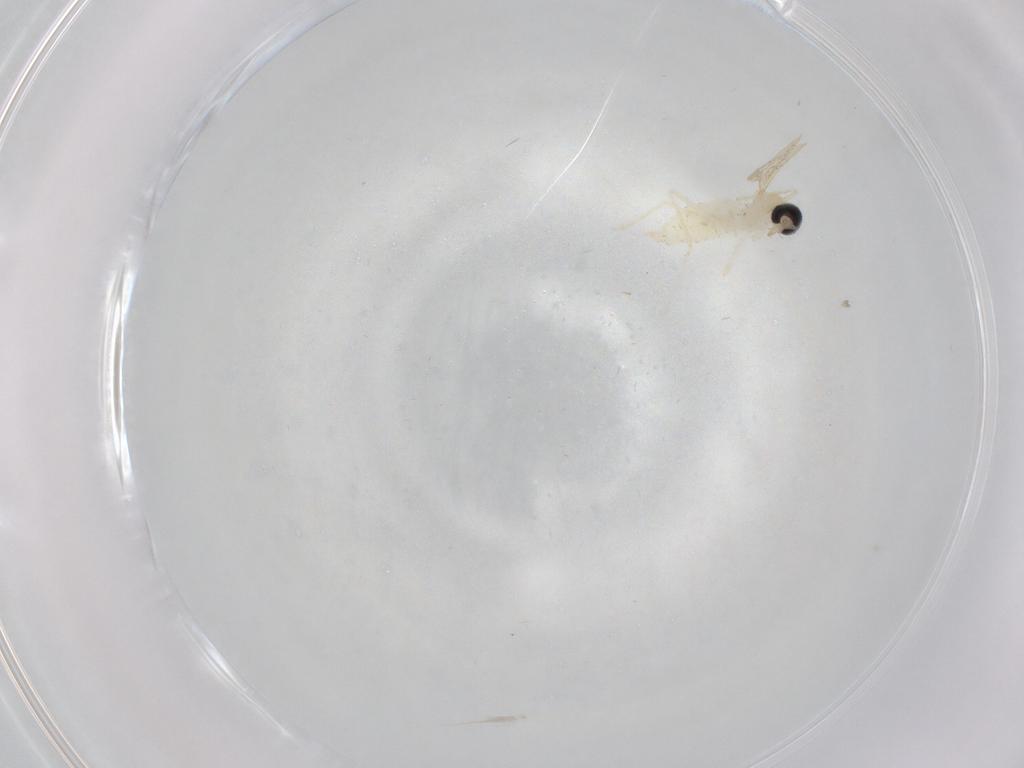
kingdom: Animalia
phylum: Arthropoda
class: Insecta
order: Diptera
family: Cecidomyiidae
